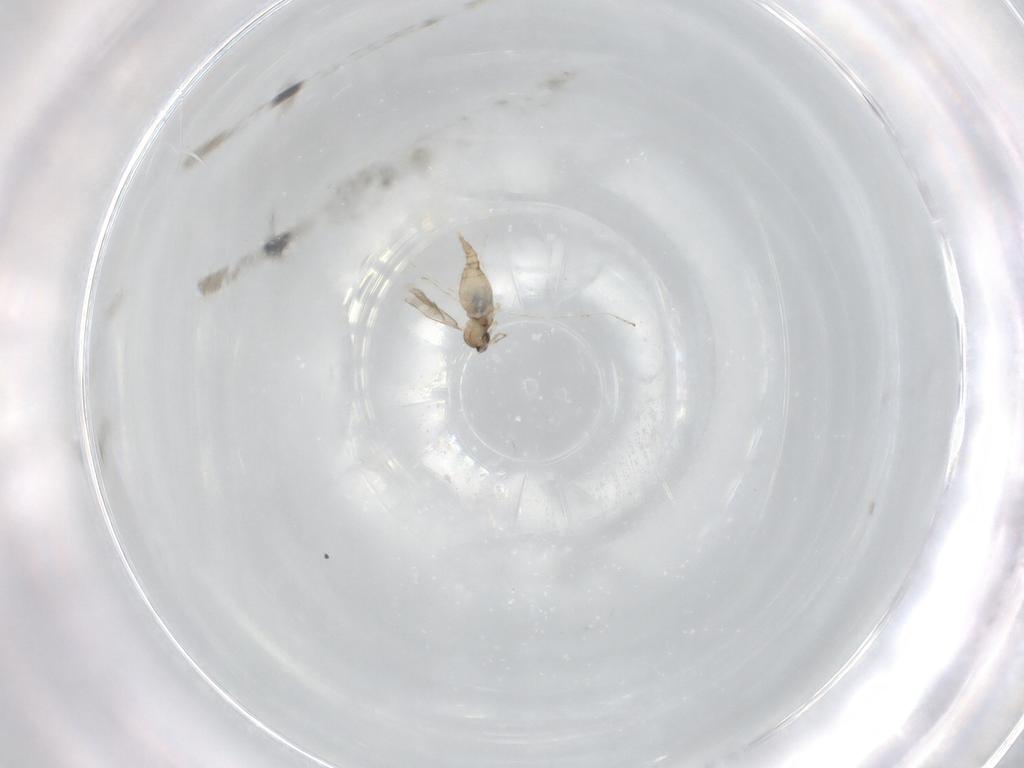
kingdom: Animalia
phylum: Arthropoda
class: Insecta
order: Diptera
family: Cecidomyiidae
